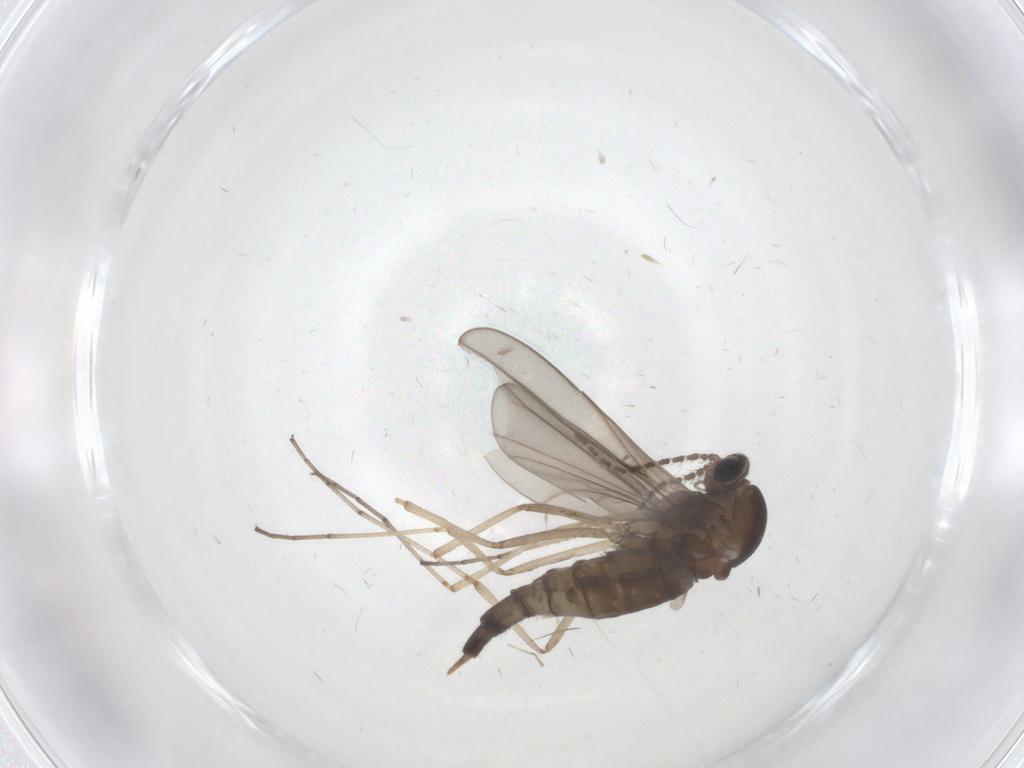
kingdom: Animalia
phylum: Arthropoda
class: Insecta
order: Diptera
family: Cecidomyiidae
